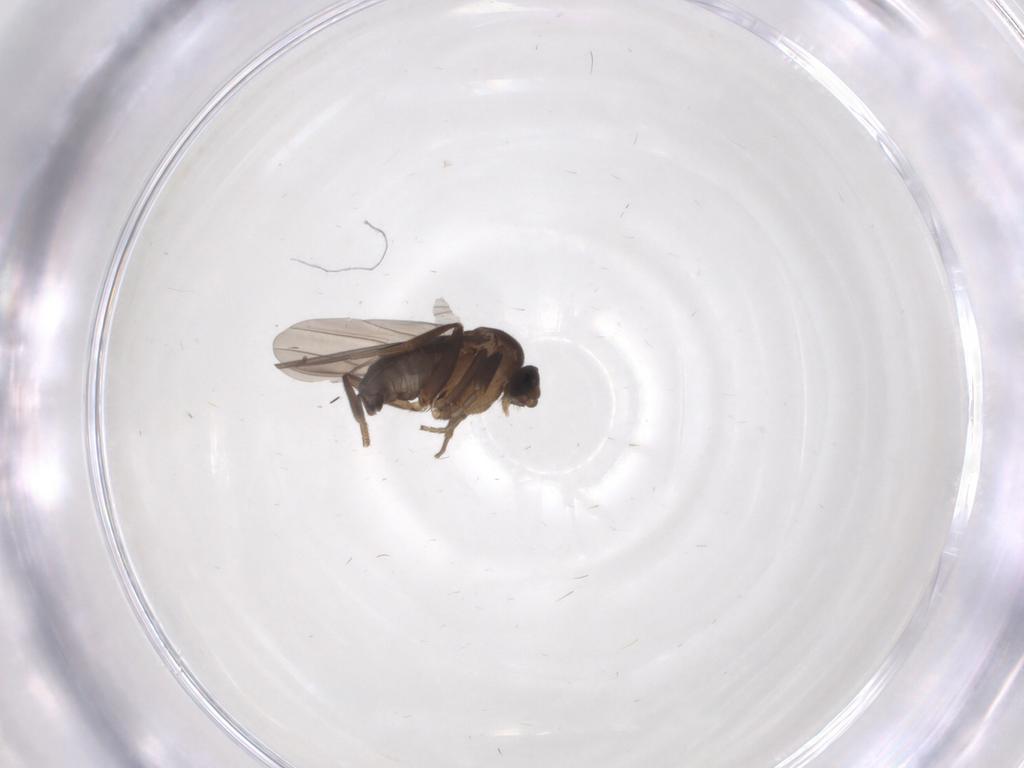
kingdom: Animalia
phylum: Arthropoda
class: Insecta
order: Diptera
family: Phoridae
